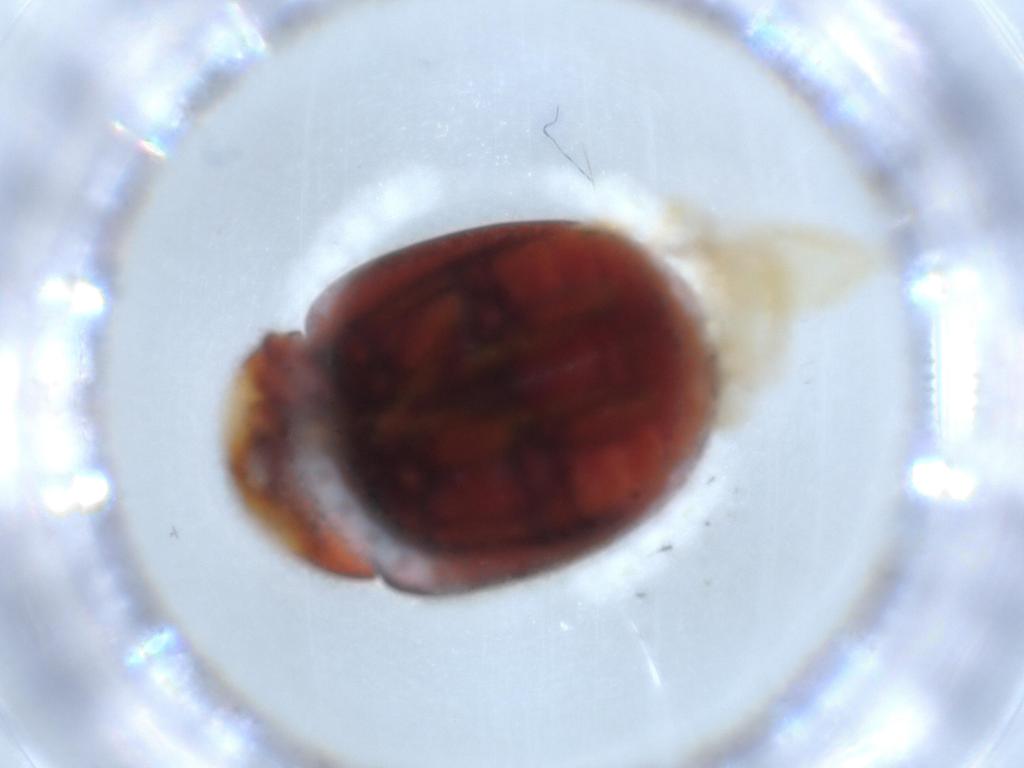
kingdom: Animalia
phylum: Arthropoda
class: Insecta
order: Coleoptera
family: Coccinellidae
